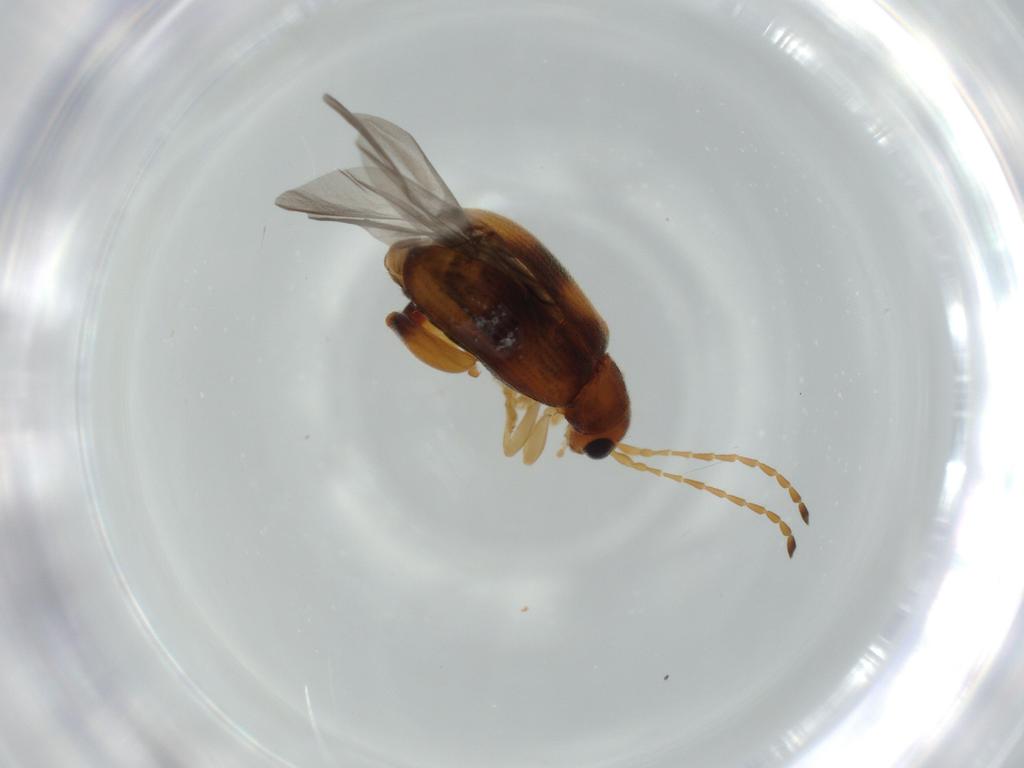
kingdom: Animalia
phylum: Arthropoda
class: Insecta
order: Coleoptera
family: Chrysomelidae
